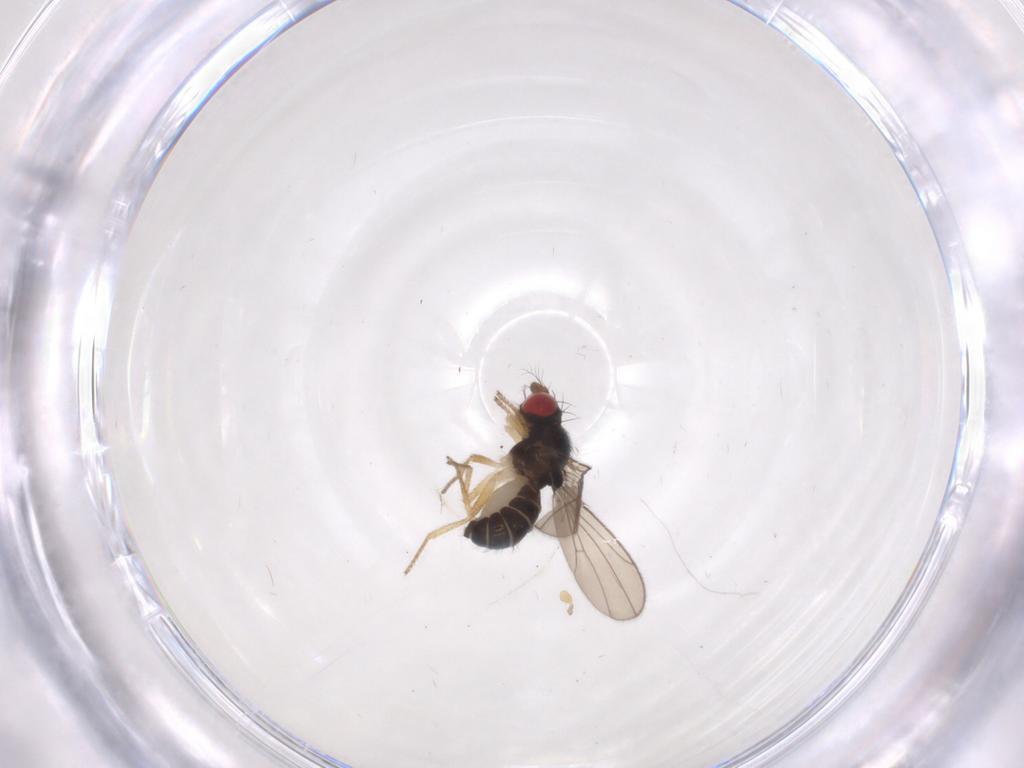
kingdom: Animalia
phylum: Arthropoda
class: Insecta
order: Diptera
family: Drosophilidae
